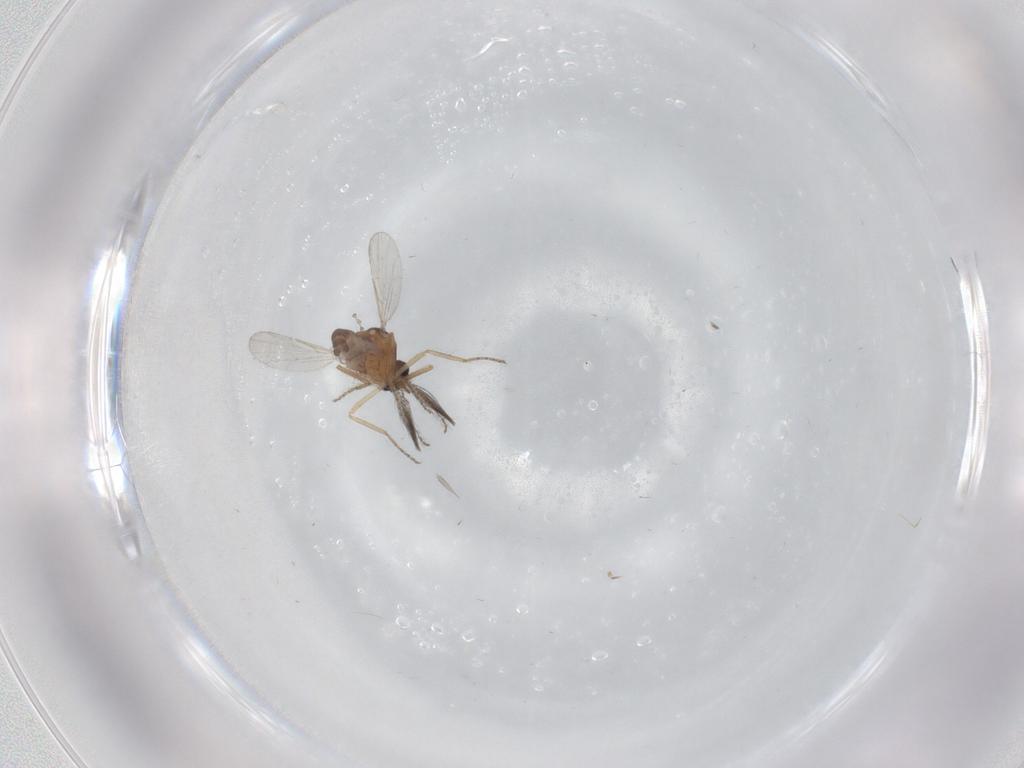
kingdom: Animalia
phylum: Arthropoda
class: Insecta
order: Diptera
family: Ceratopogonidae
